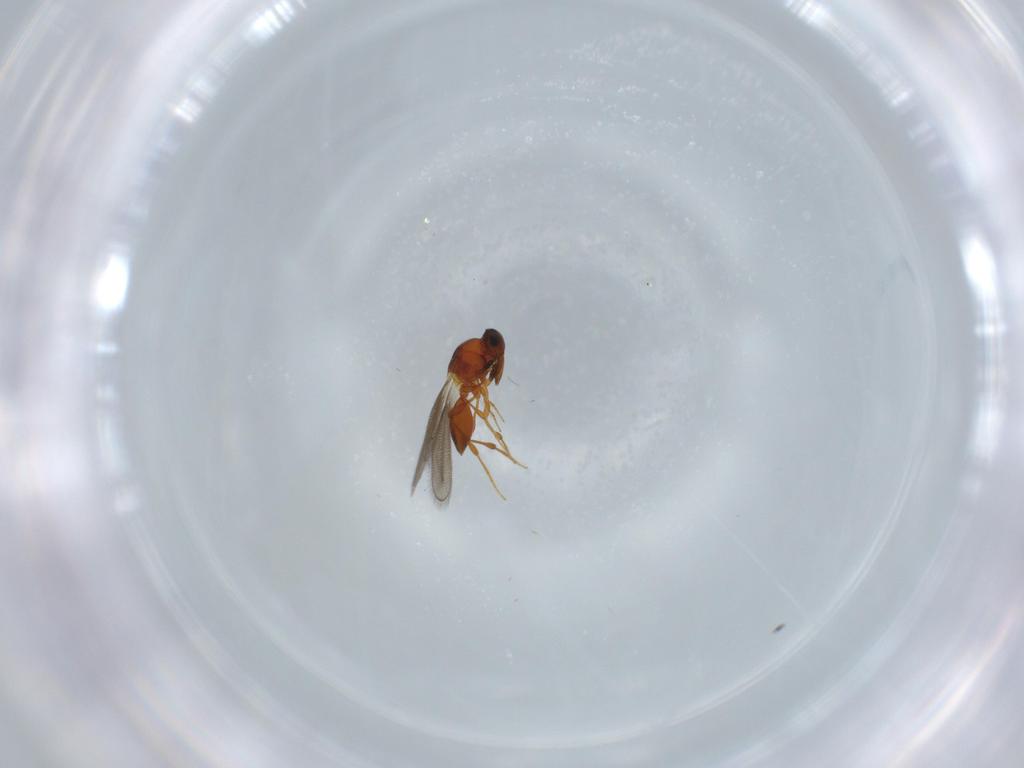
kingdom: Animalia
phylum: Arthropoda
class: Insecta
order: Hymenoptera
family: Platygastridae
